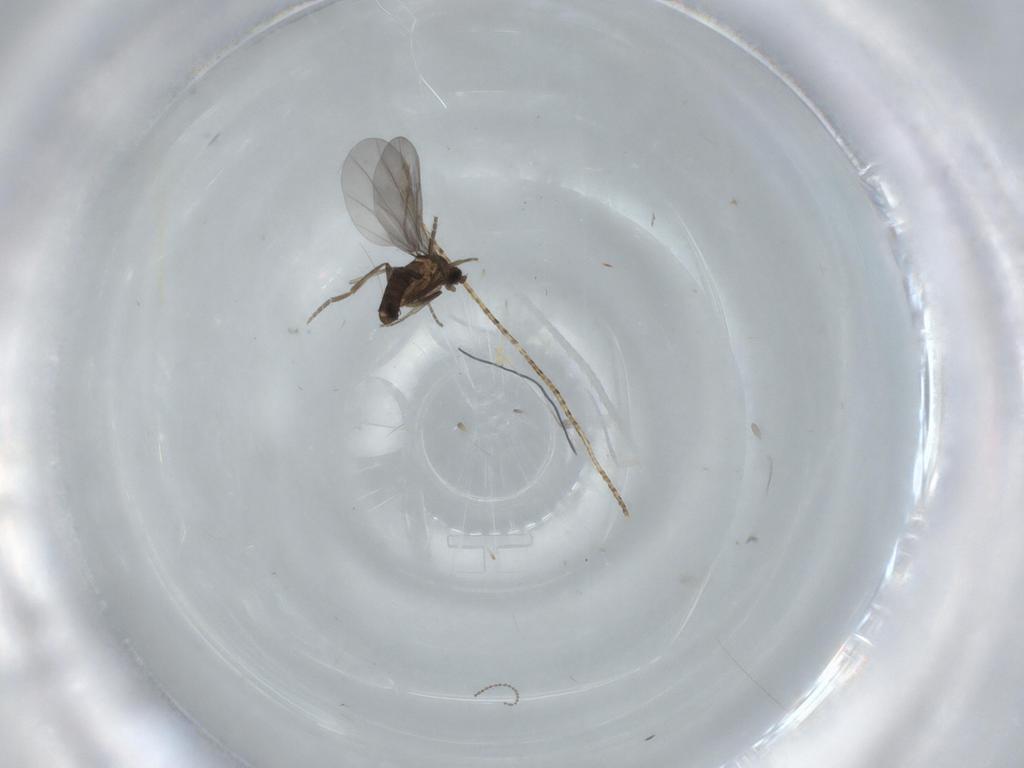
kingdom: Animalia
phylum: Arthropoda
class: Insecta
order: Diptera
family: Phoridae
